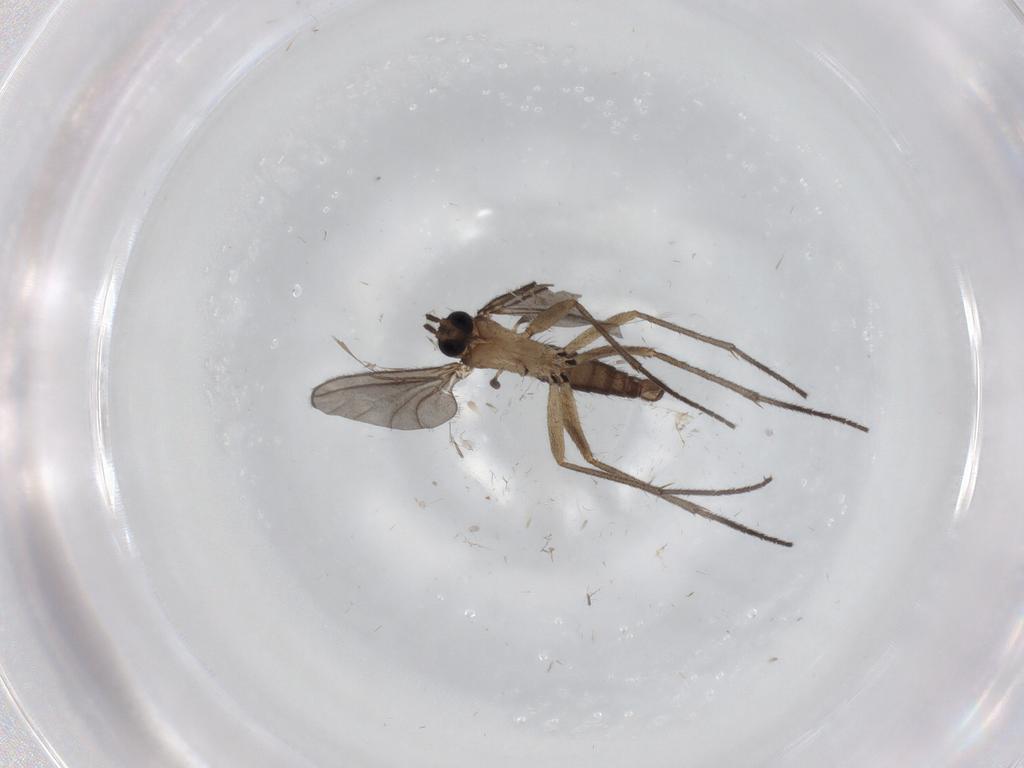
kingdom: Animalia
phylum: Arthropoda
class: Insecta
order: Diptera
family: Sciaridae
